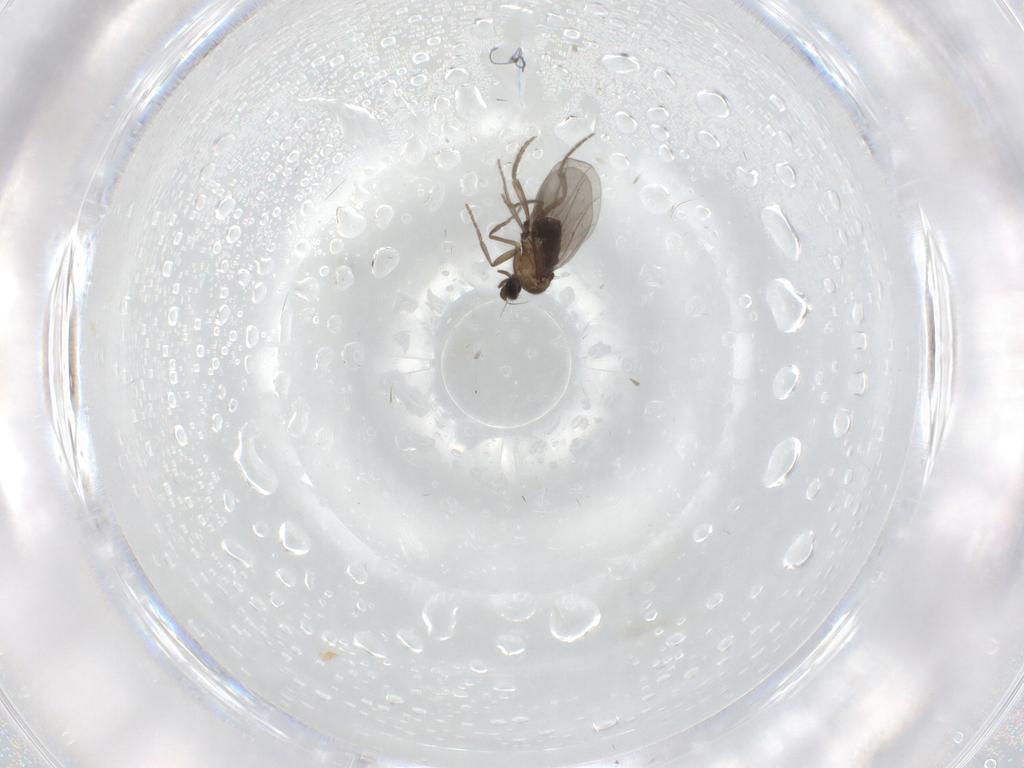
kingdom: Animalia
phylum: Arthropoda
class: Insecta
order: Diptera
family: Phoridae
